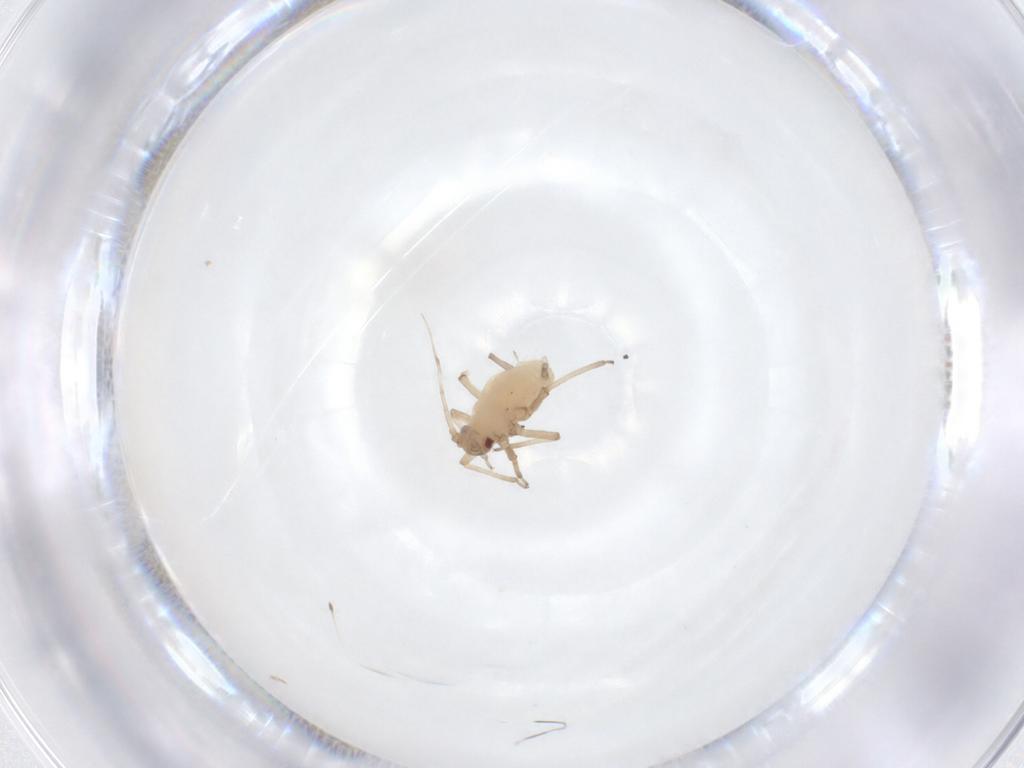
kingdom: Animalia
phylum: Arthropoda
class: Insecta
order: Hemiptera
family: Aphididae
